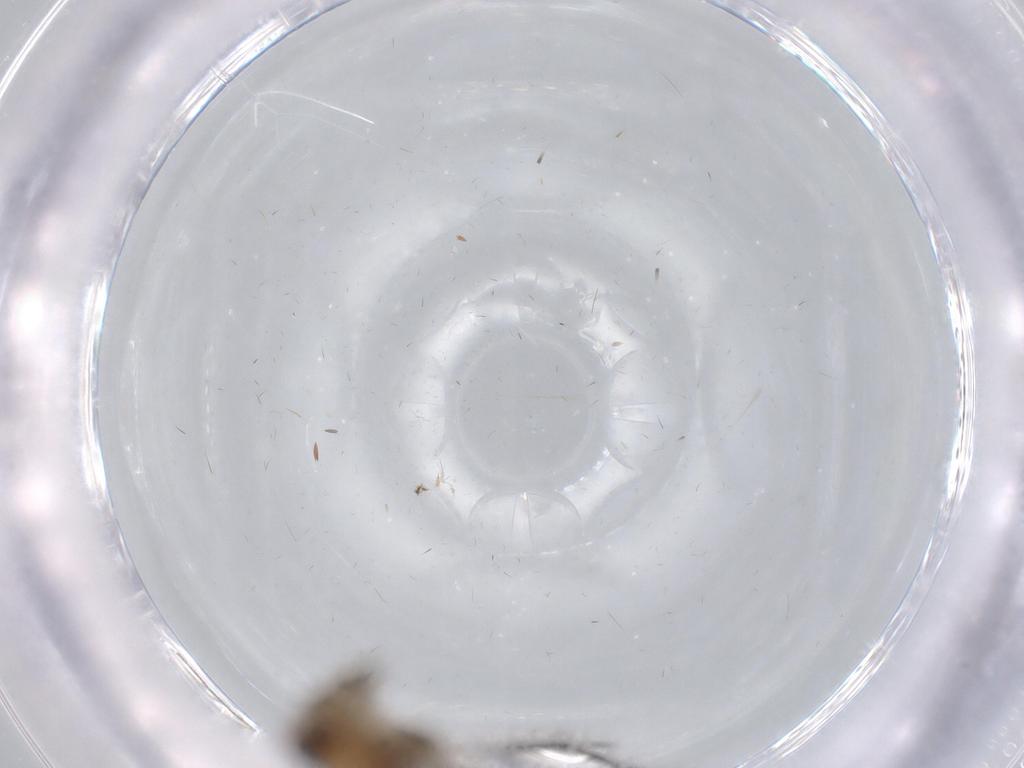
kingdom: Animalia
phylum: Arthropoda
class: Insecta
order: Diptera
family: Mycetophilidae
